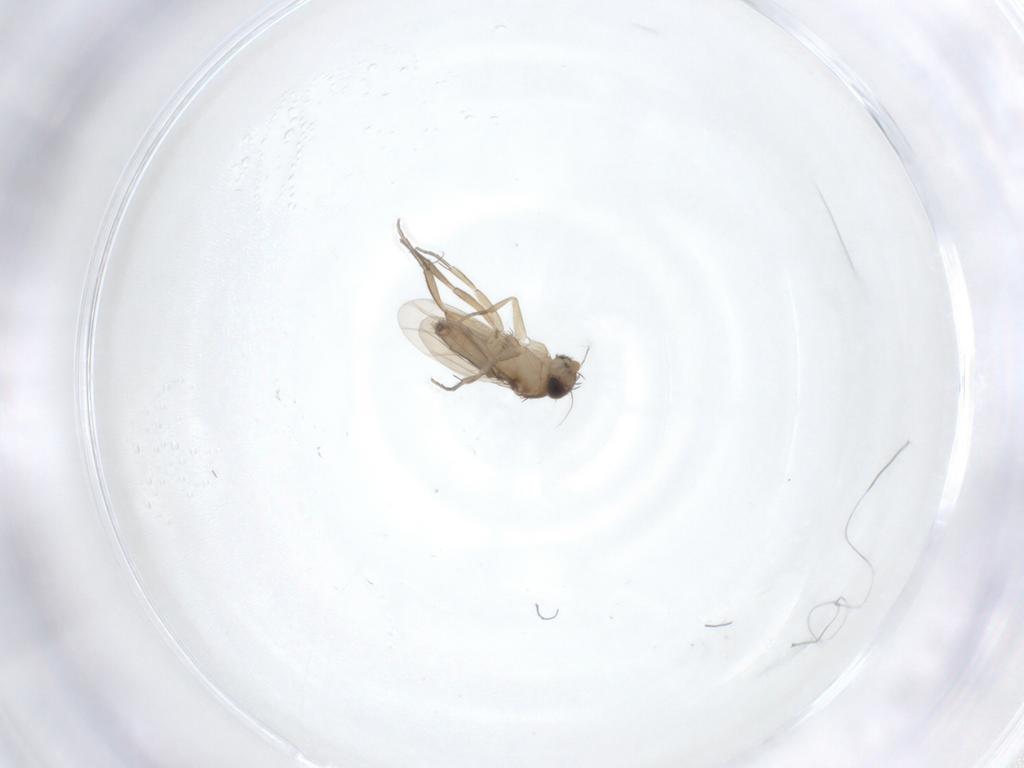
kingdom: Animalia
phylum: Arthropoda
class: Insecta
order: Diptera
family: Phoridae
